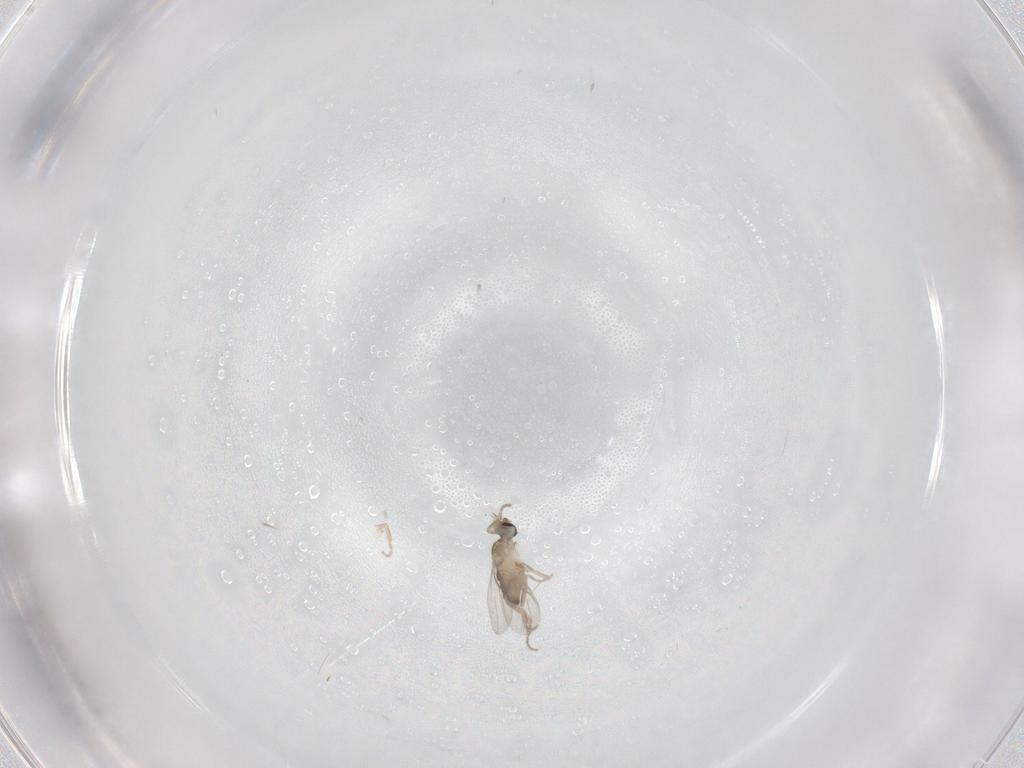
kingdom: Animalia
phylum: Arthropoda
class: Insecta
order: Diptera
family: Phoridae
